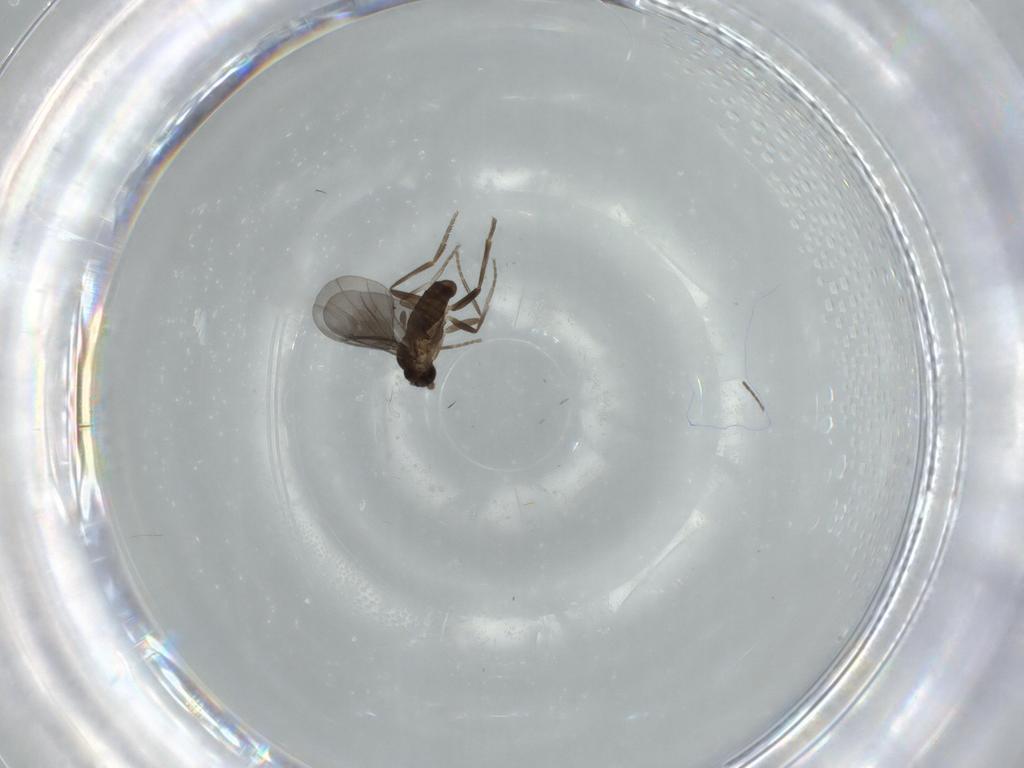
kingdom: Animalia
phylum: Arthropoda
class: Insecta
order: Diptera
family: Phoridae
